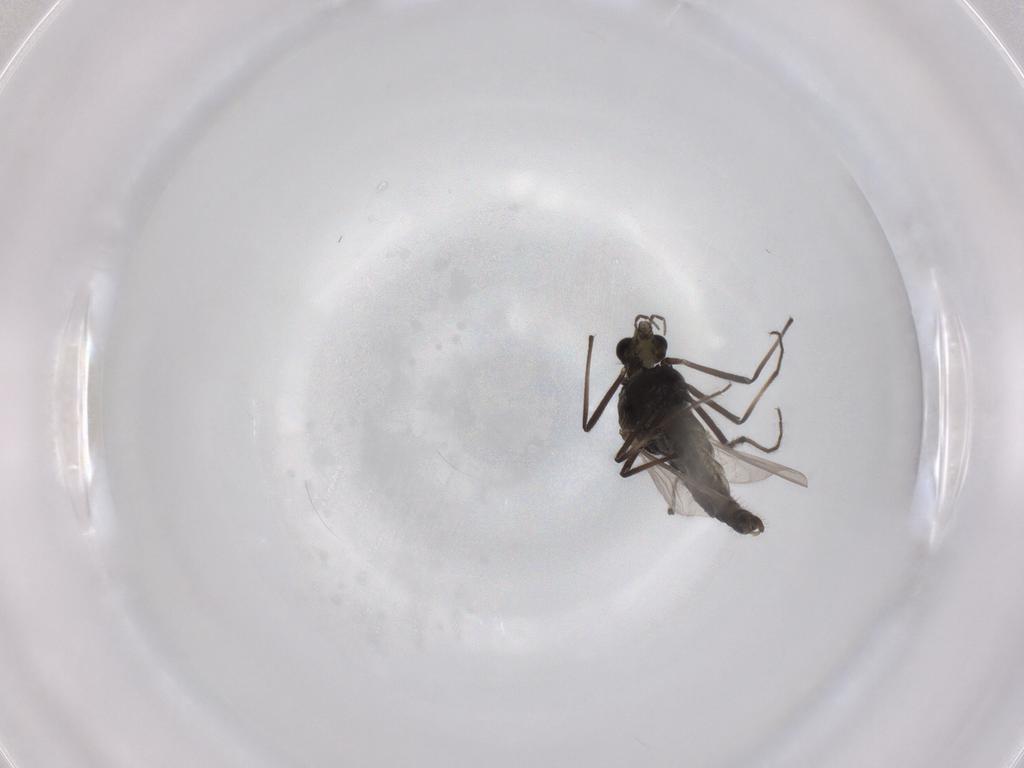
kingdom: Animalia
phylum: Arthropoda
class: Insecta
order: Diptera
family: Chironomidae
